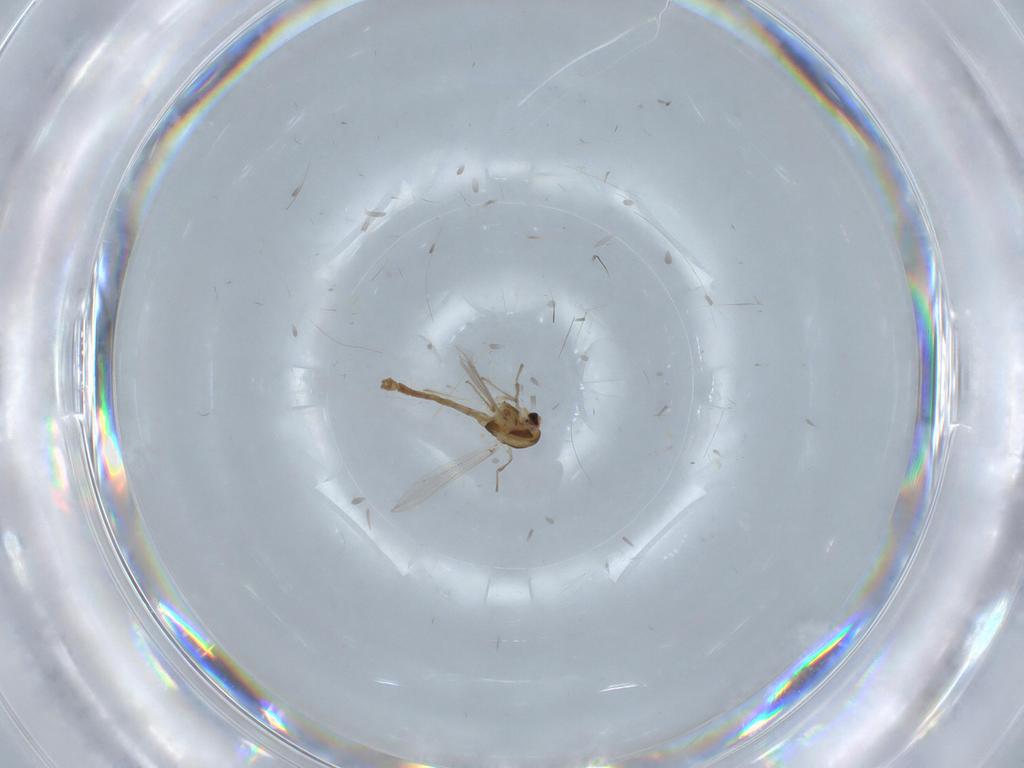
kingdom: Animalia
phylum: Arthropoda
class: Insecta
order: Diptera
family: Chironomidae
